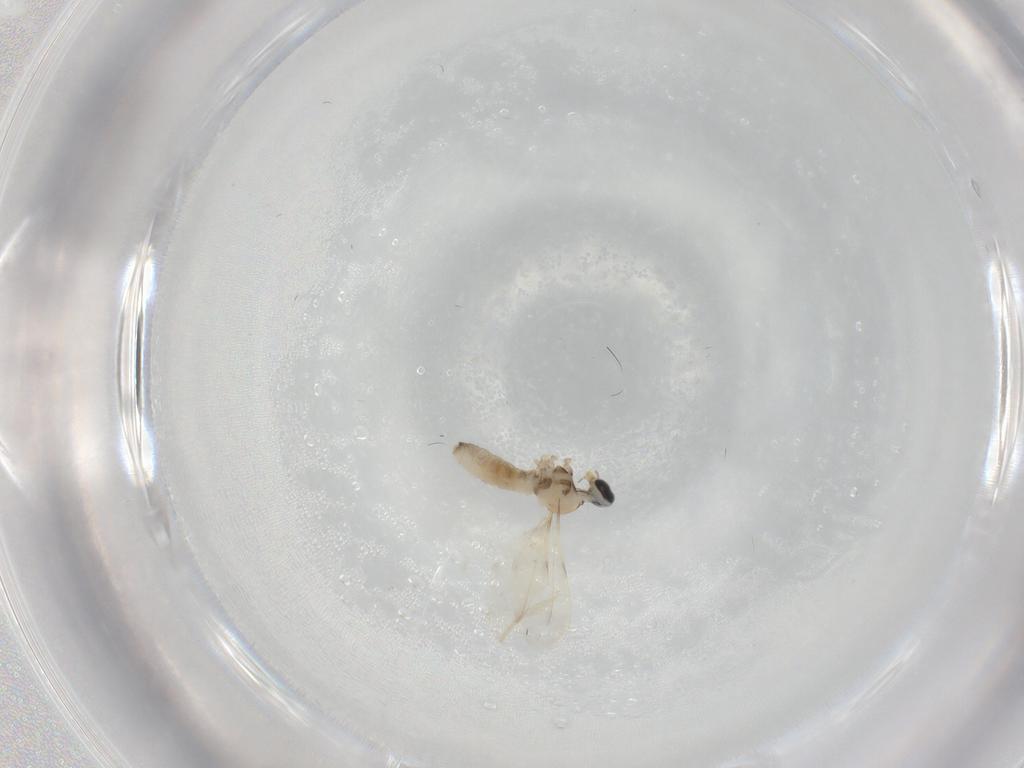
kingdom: Animalia
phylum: Arthropoda
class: Insecta
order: Diptera
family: Cecidomyiidae
